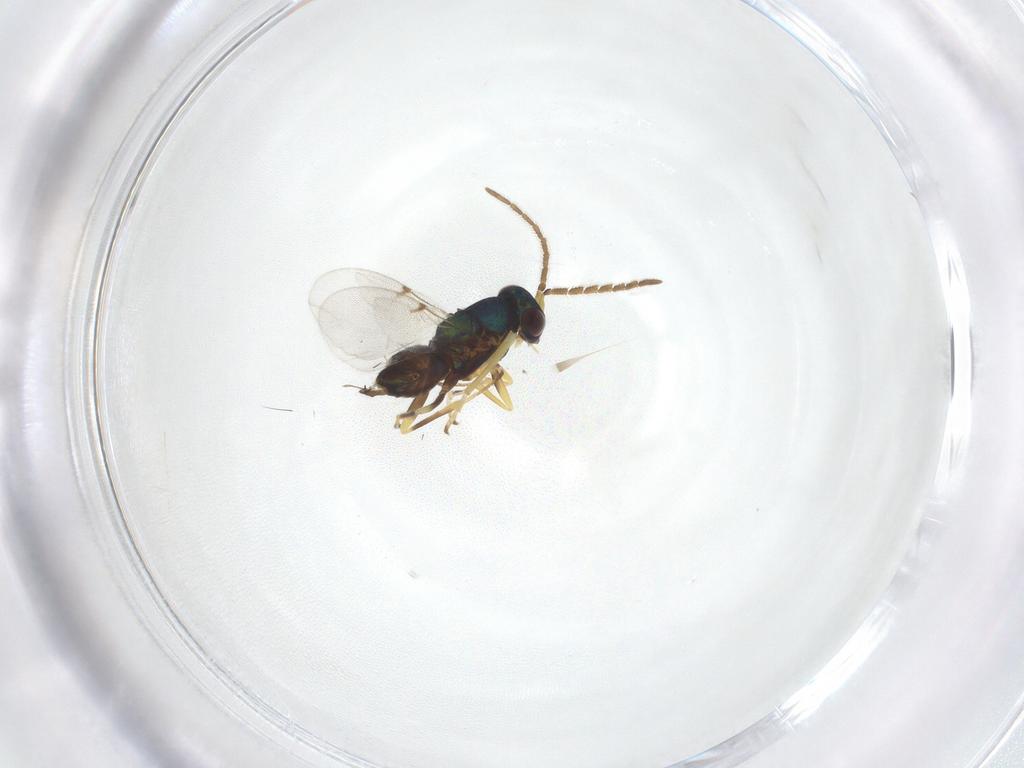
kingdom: Animalia
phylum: Arthropoda
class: Insecta
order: Hymenoptera
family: Encyrtidae
